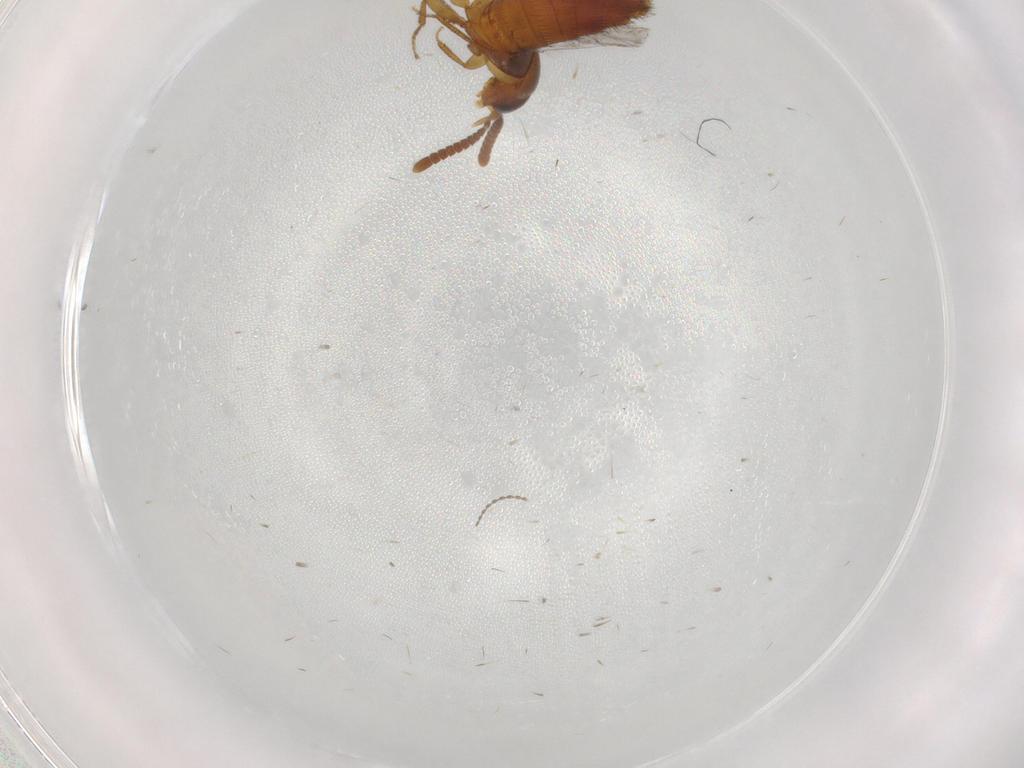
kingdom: Animalia
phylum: Arthropoda
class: Insecta
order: Coleoptera
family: Staphylinidae
